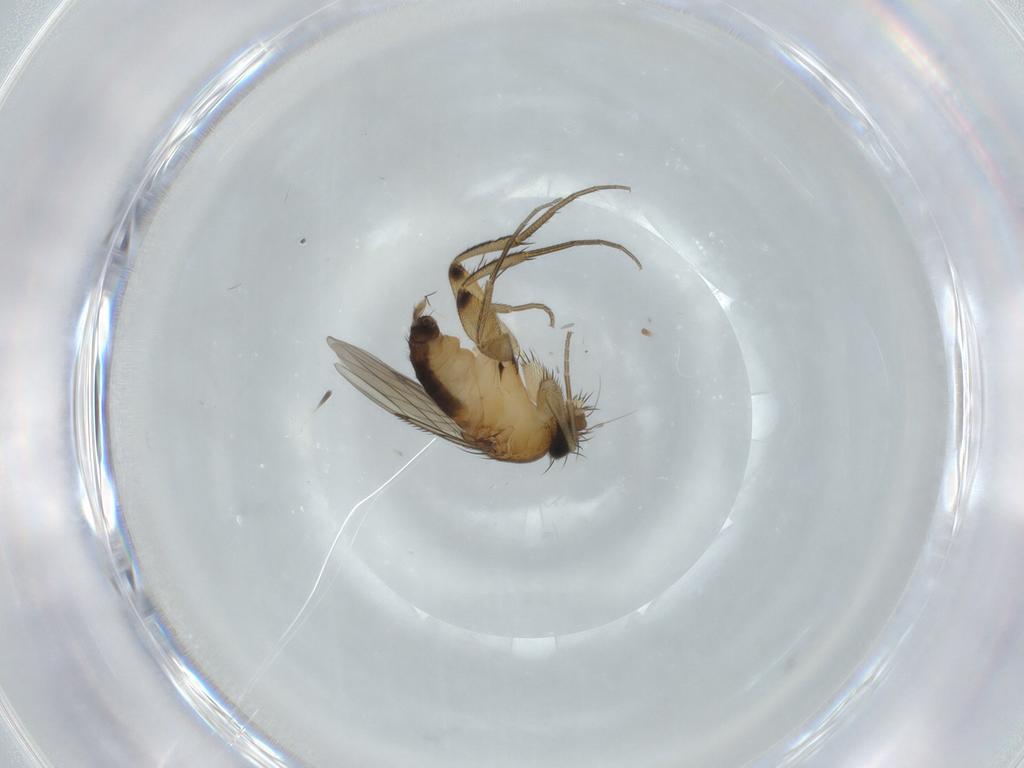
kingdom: Animalia
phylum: Arthropoda
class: Insecta
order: Diptera
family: Phoridae
